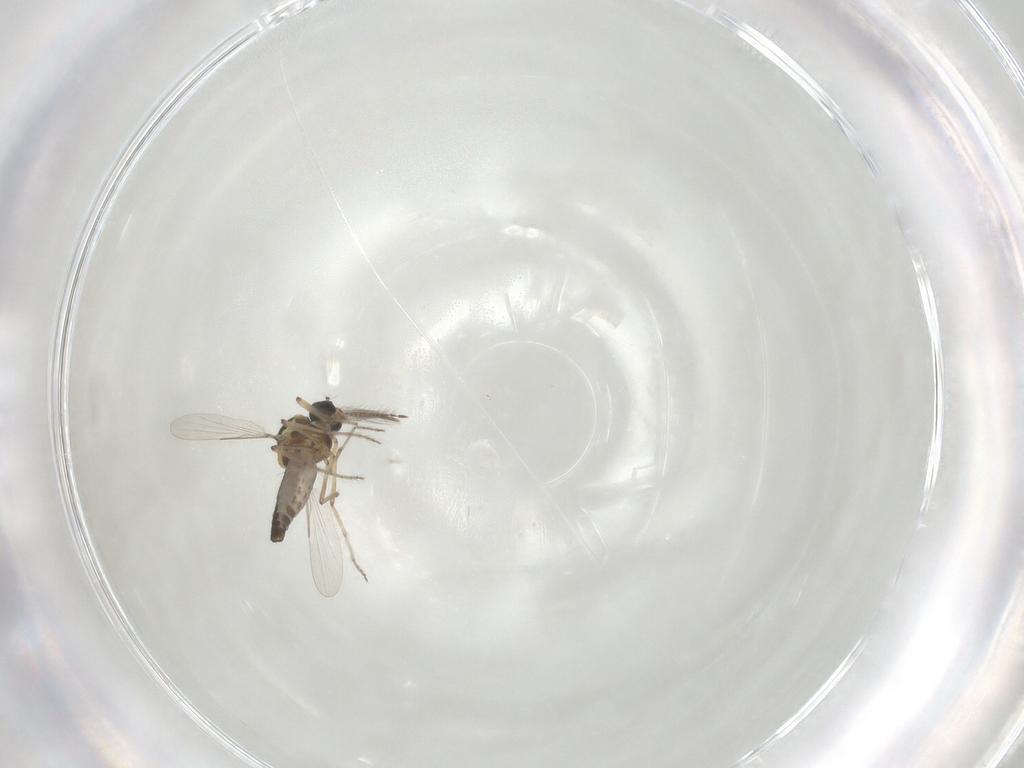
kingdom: Animalia
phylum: Arthropoda
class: Insecta
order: Diptera
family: Ceratopogonidae
